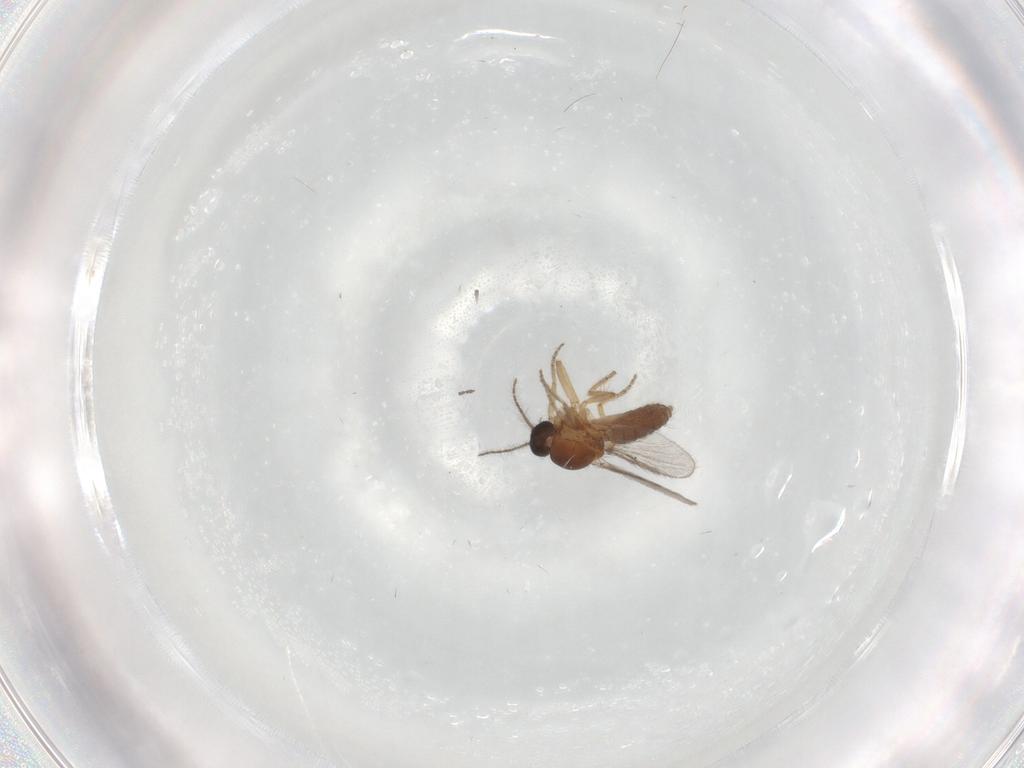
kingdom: Animalia
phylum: Arthropoda
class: Insecta
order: Diptera
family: Ceratopogonidae
